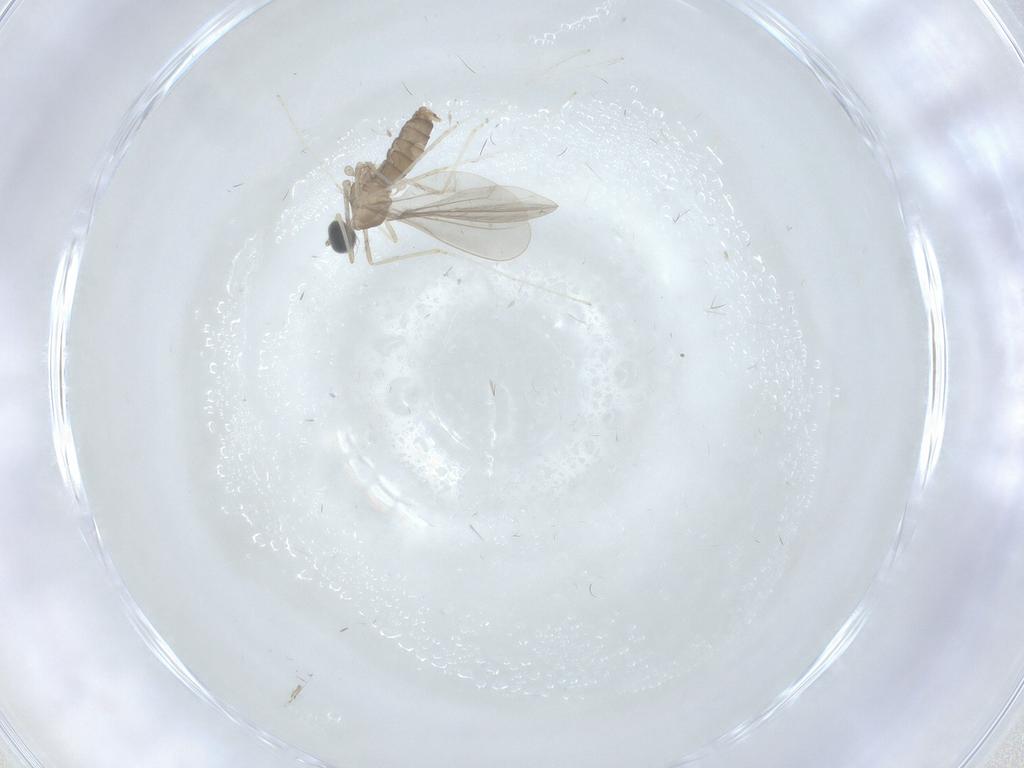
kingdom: Animalia
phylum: Arthropoda
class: Insecta
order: Diptera
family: Cecidomyiidae
